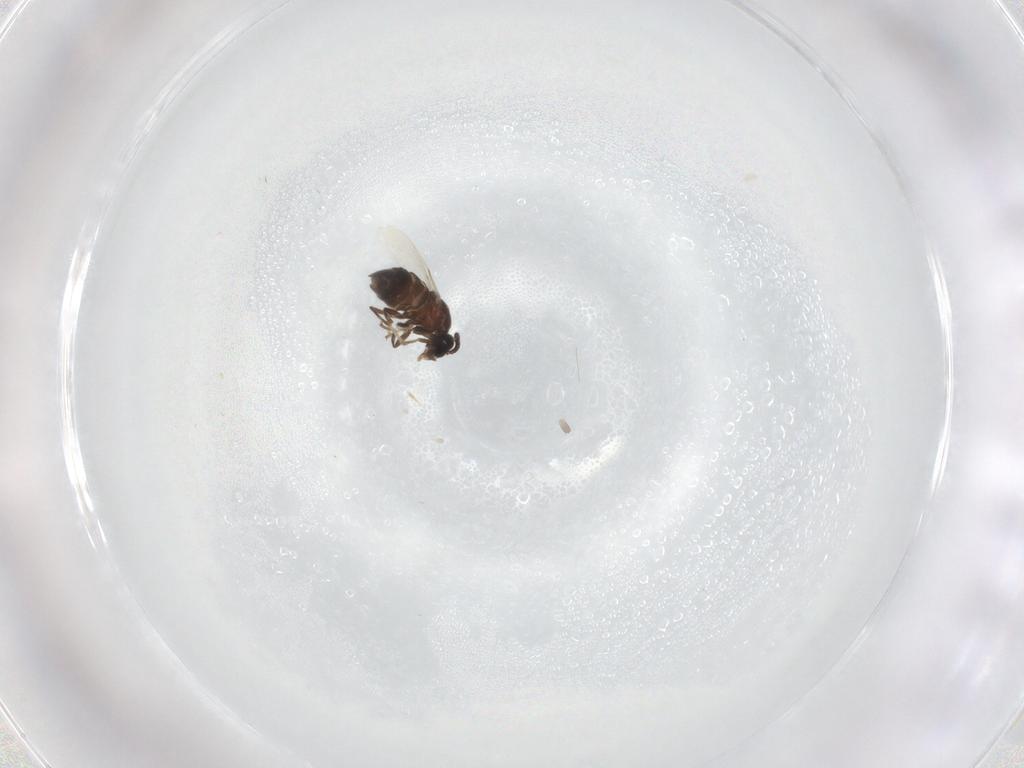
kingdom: Animalia
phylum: Arthropoda
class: Insecta
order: Diptera
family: Scatopsidae
